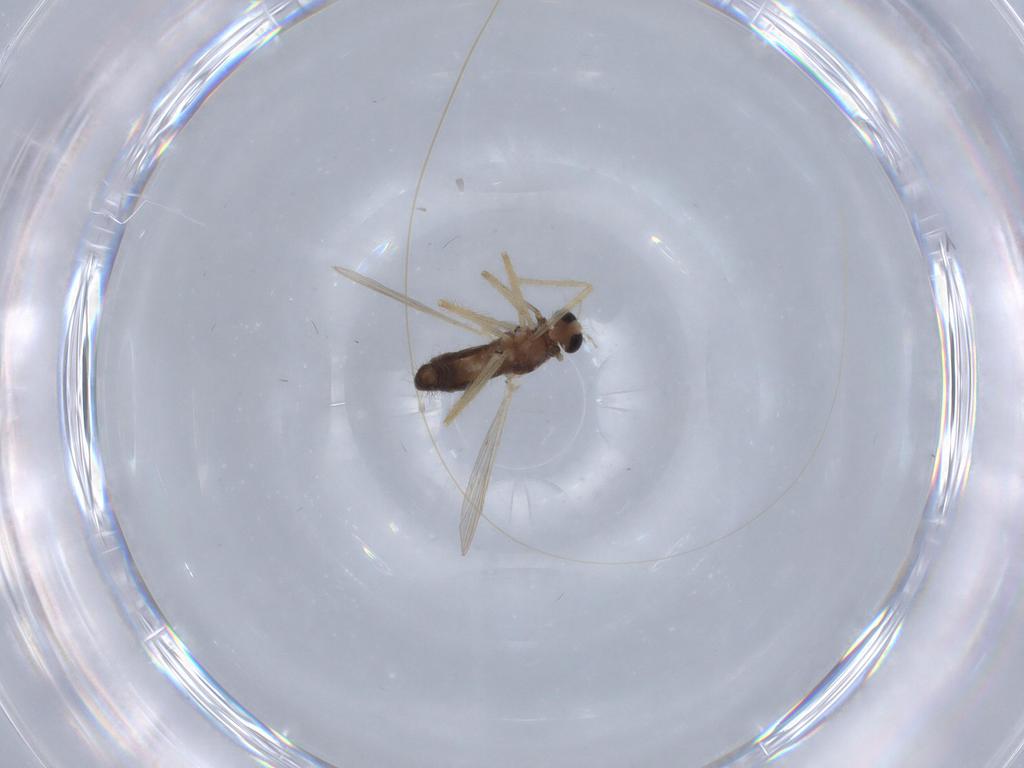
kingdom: Animalia
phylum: Arthropoda
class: Insecta
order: Diptera
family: Chironomidae
